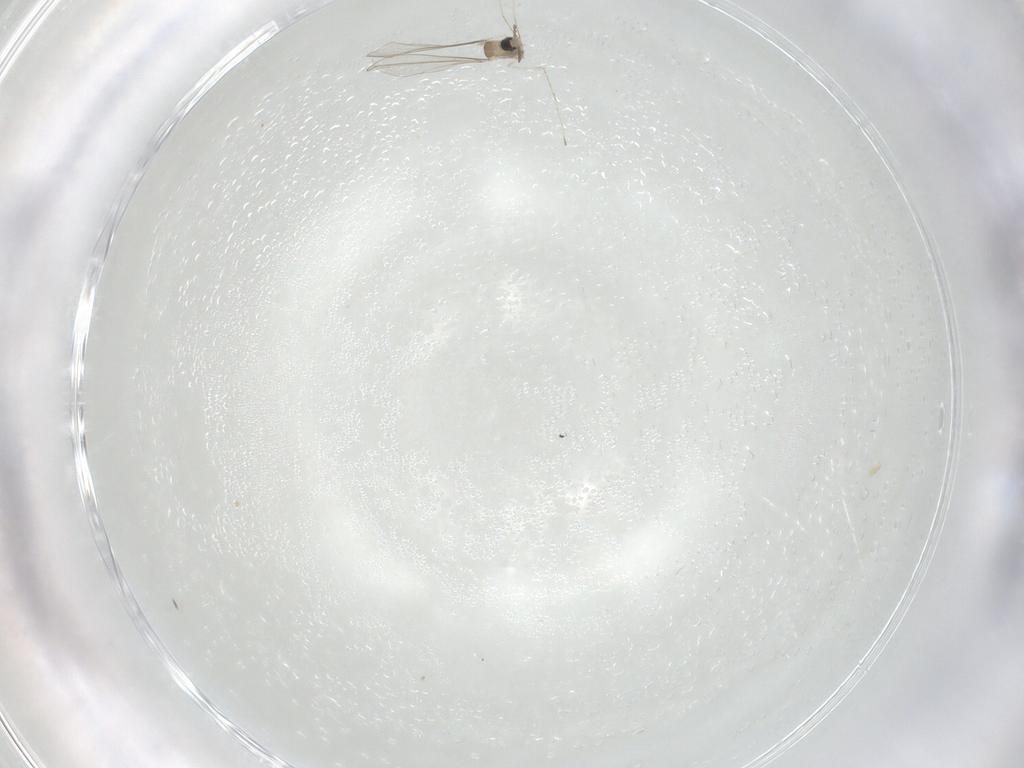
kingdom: Animalia
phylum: Arthropoda
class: Insecta
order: Diptera
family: Cecidomyiidae
